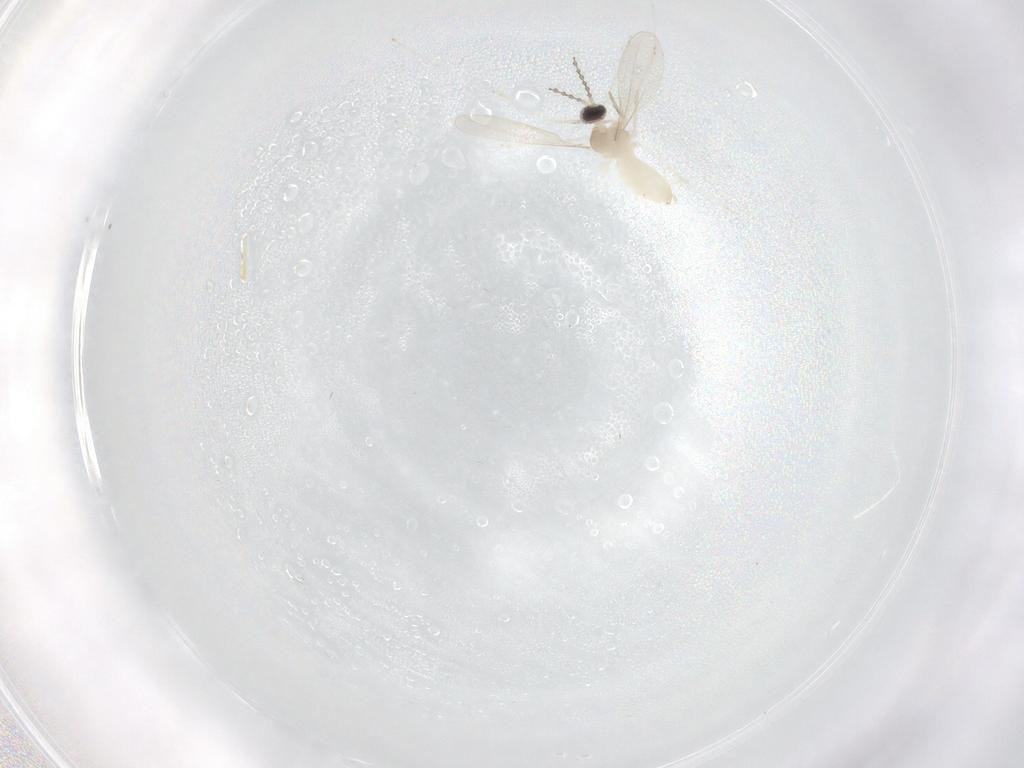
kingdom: Animalia
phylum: Arthropoda
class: Insecta
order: Diptera
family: Cecidomyiidae
